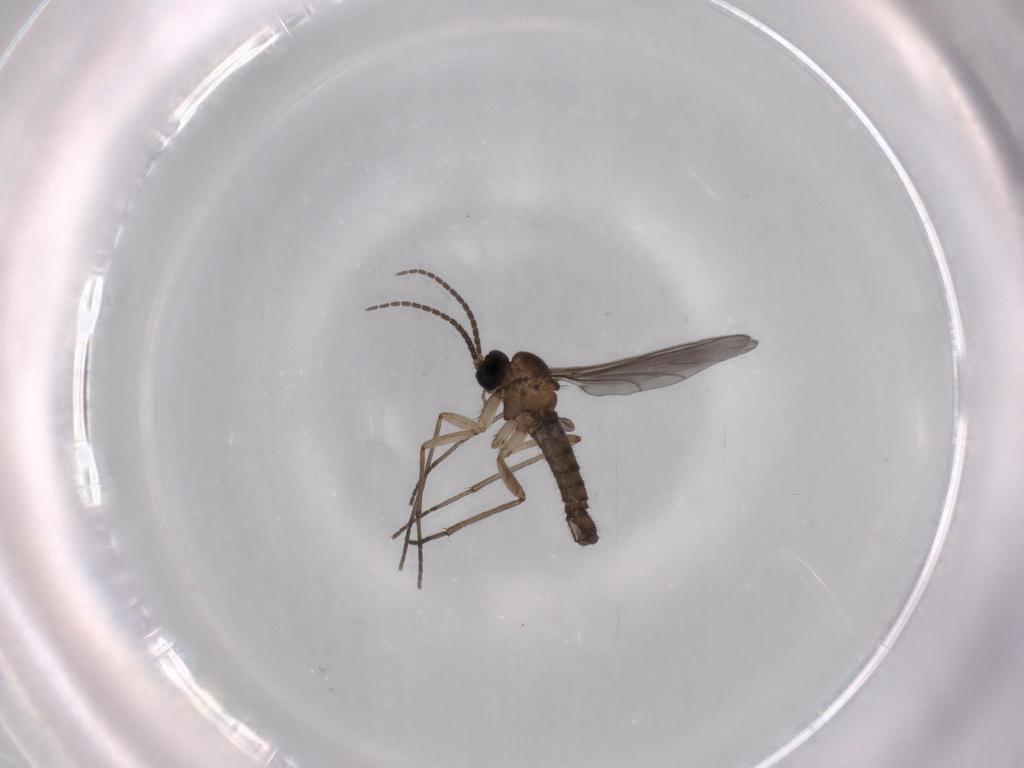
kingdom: Animalia
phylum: Arthropoda
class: Insecta
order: Diptera
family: Sciaridae
